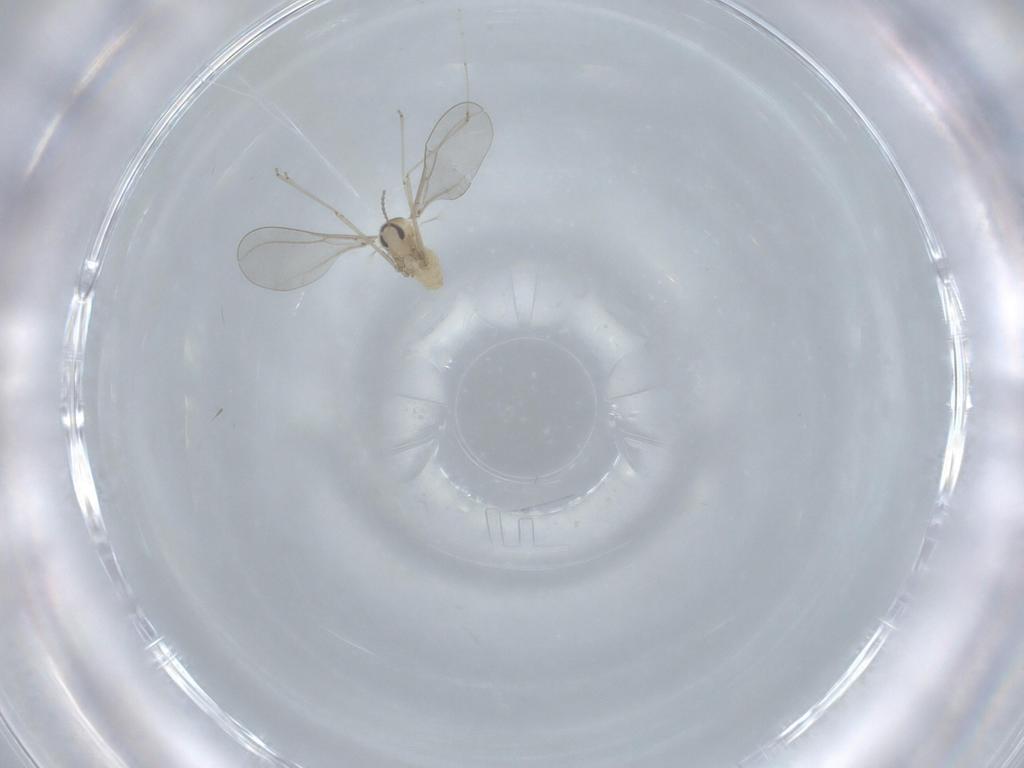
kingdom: Animalia
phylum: Arthropoda
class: Insecta
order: Diptera
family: Cecidomyiidae
